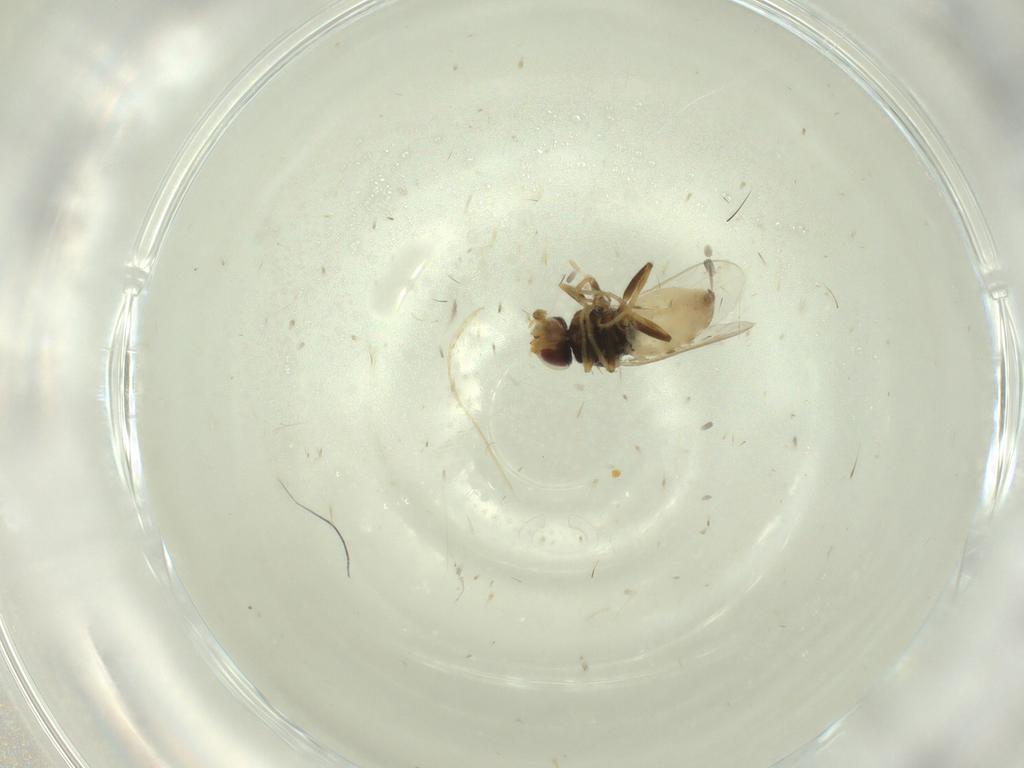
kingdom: Animalia
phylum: Arthropoda
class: Insecta
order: Diptera
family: Chloropidae
